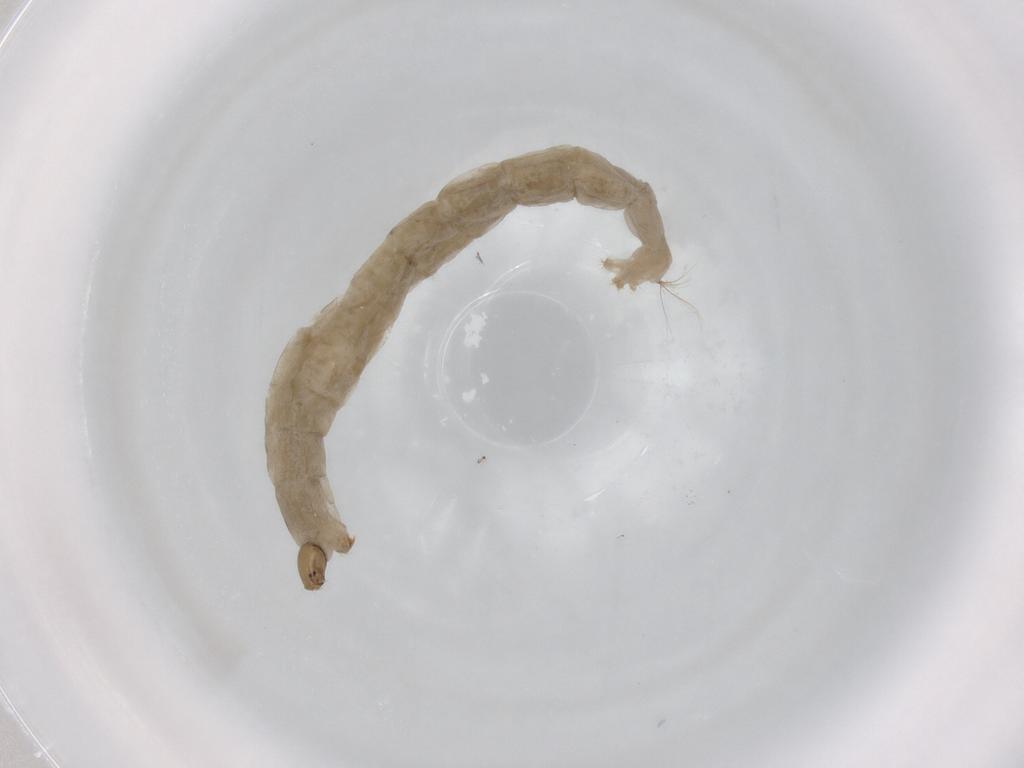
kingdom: Animalia
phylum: Arthropoda
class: Insecta
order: Diptera
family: Chironomidae
